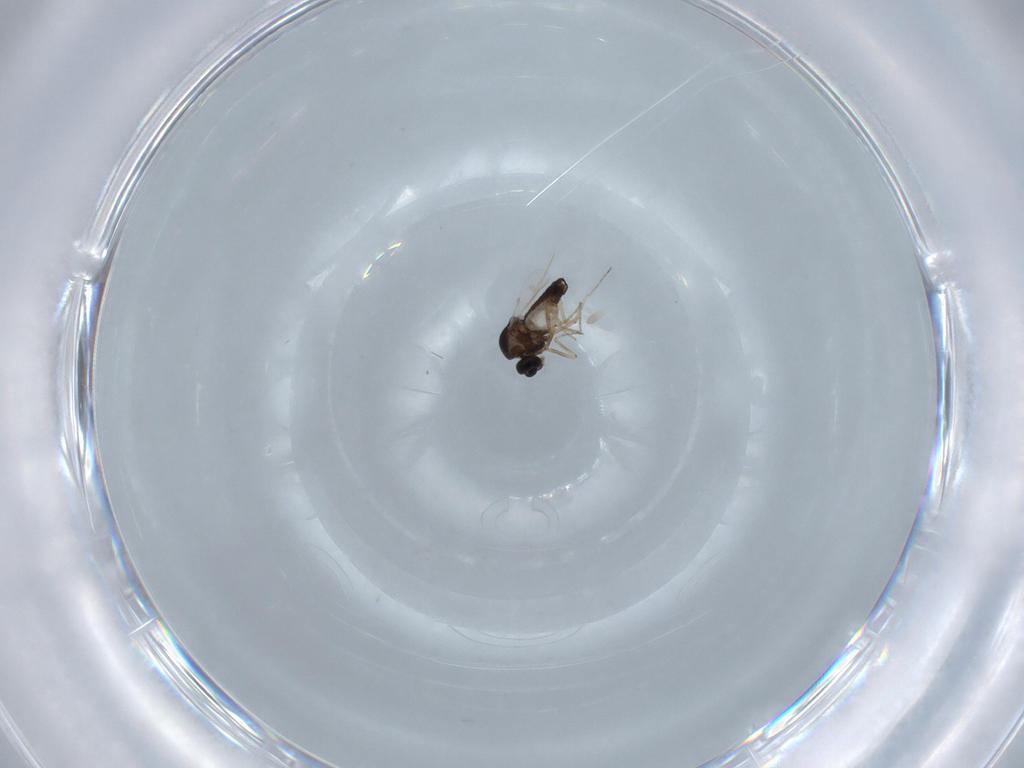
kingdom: Animalia
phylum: Arthropoda
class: Insecta
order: Diptera
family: Ceratopogonidae
